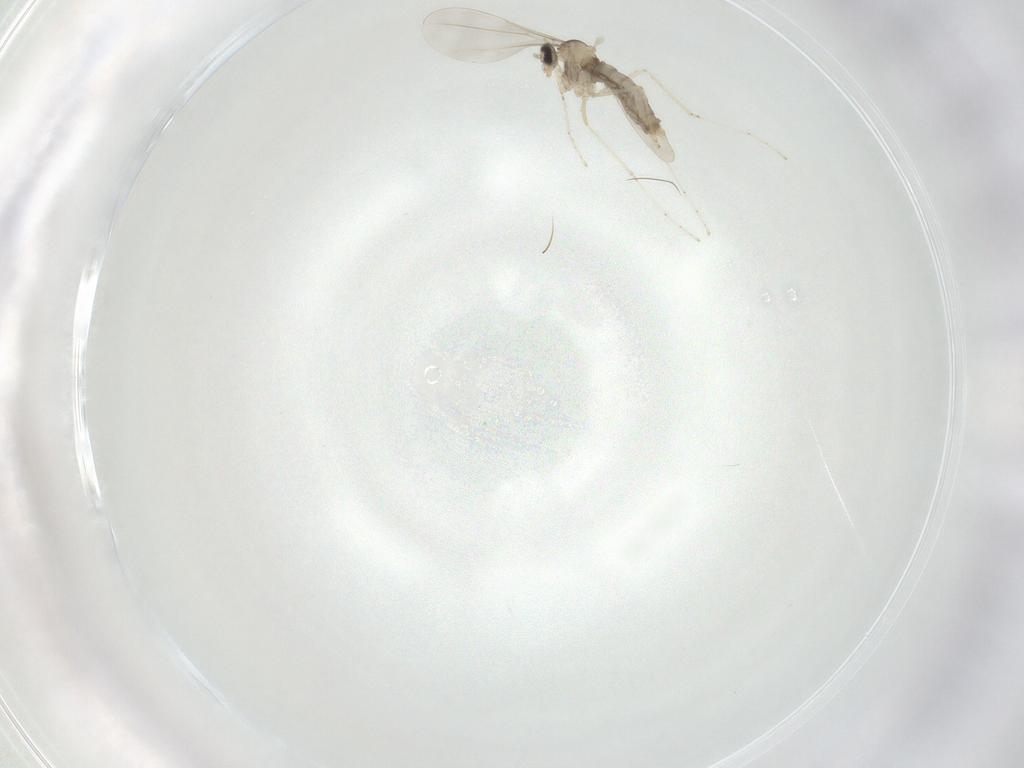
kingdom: Animalia
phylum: Arthropoda
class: Insecta
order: Diptera
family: Cecidomyiidae
